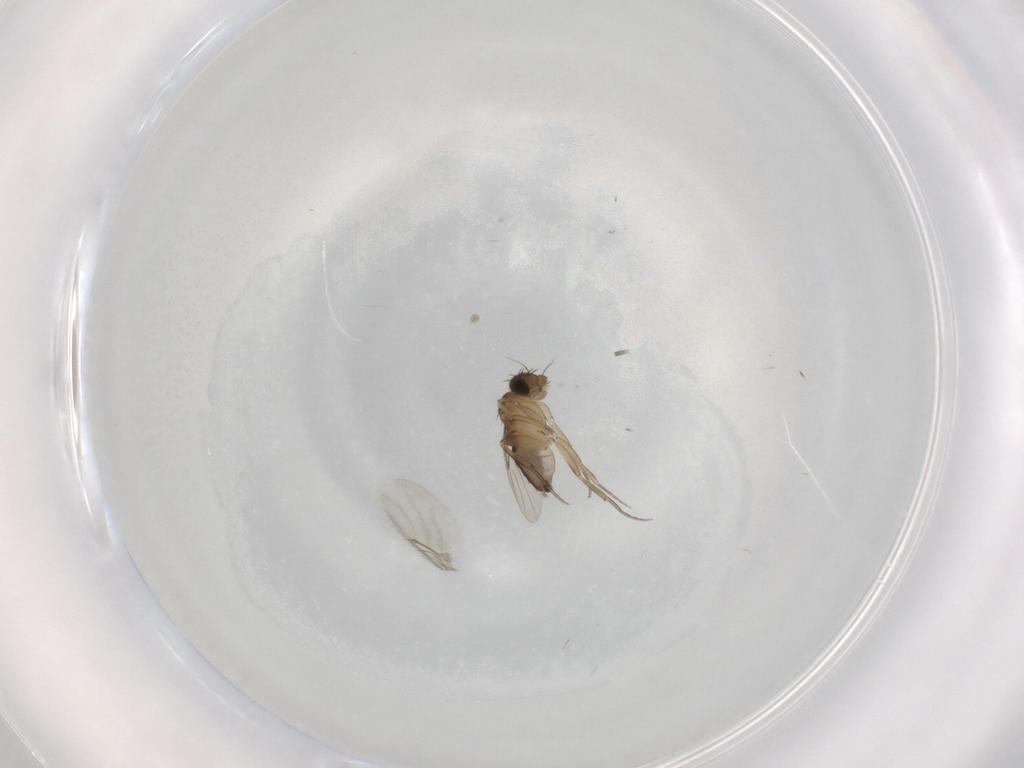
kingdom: Animalia
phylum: Arthropoda
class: Insecta
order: Diptera
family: Phoridae
